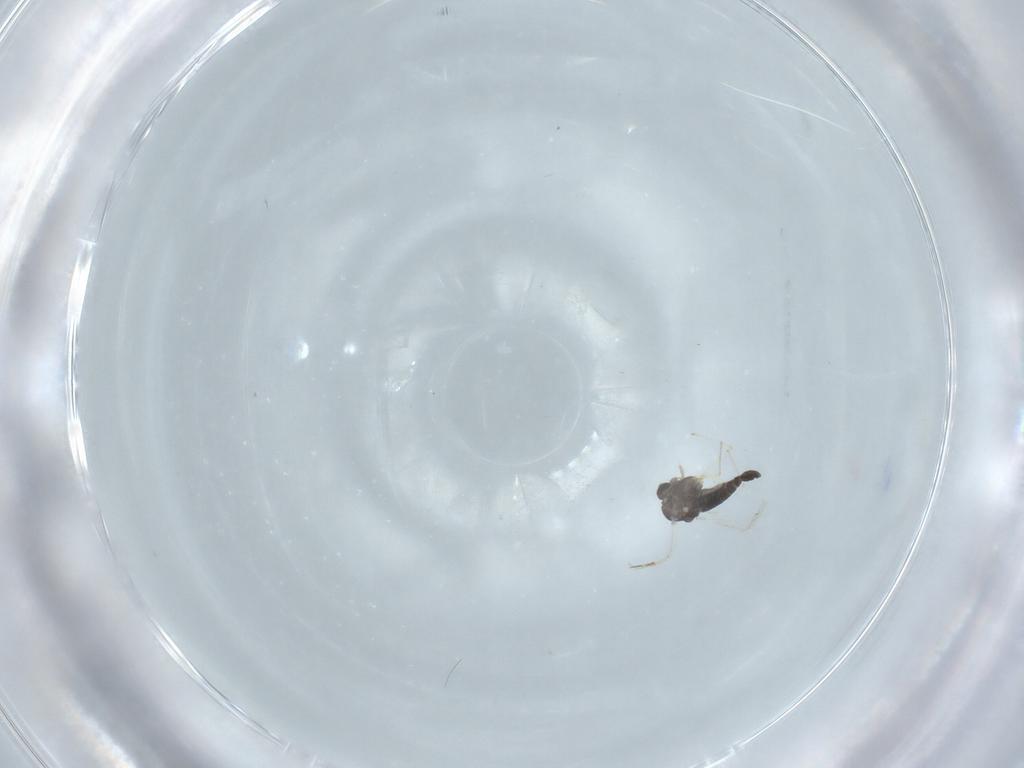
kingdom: Animalia
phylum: Arthropoda
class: Insecta
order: Diptera
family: Chironomidae
